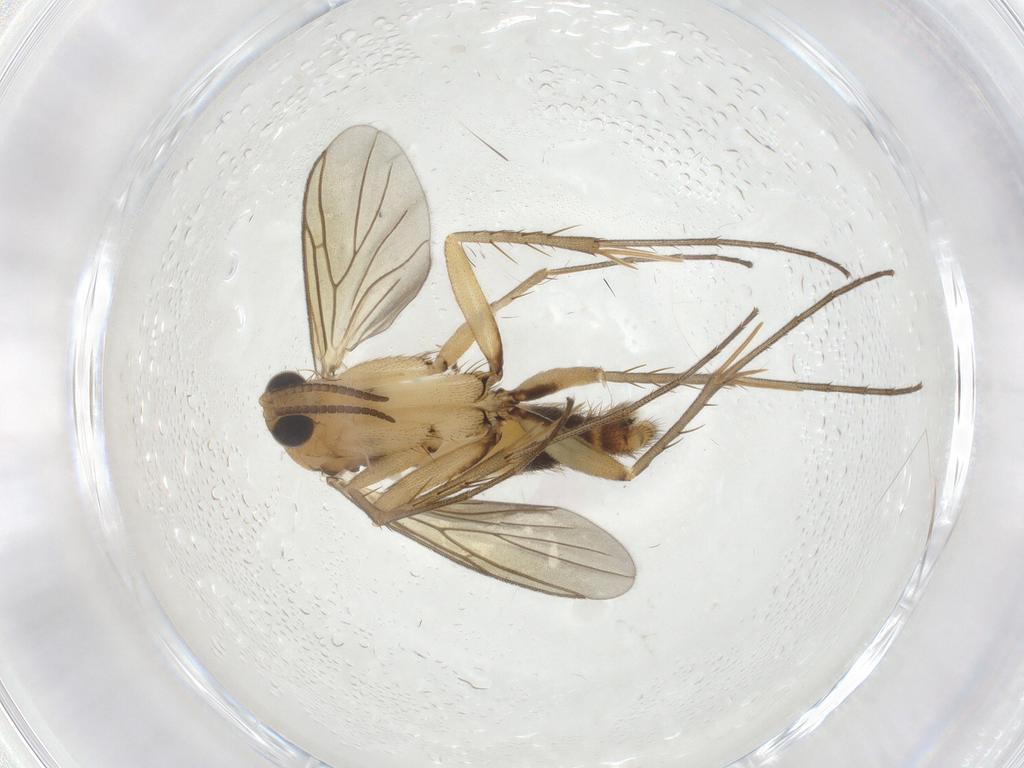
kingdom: Animalia
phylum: Arthropoda
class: Insecta
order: Diptera
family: Mycetophilidae
